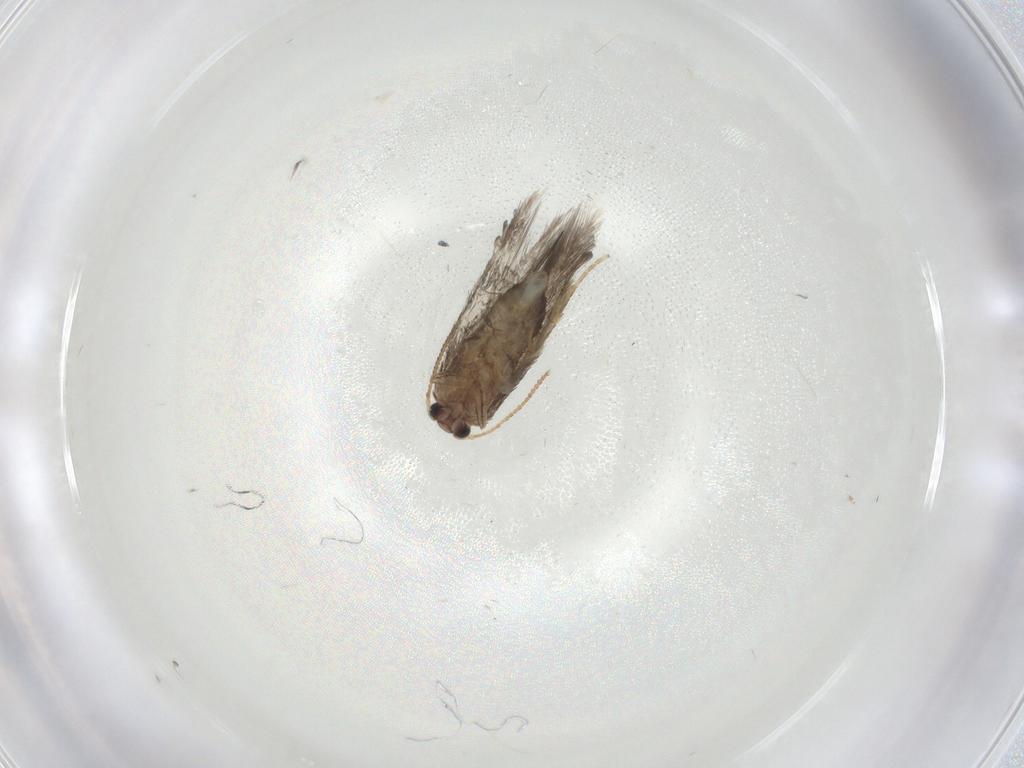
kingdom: Animalia
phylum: Arthropoda
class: Insecta
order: Lepidoptera
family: Nepticulidae
